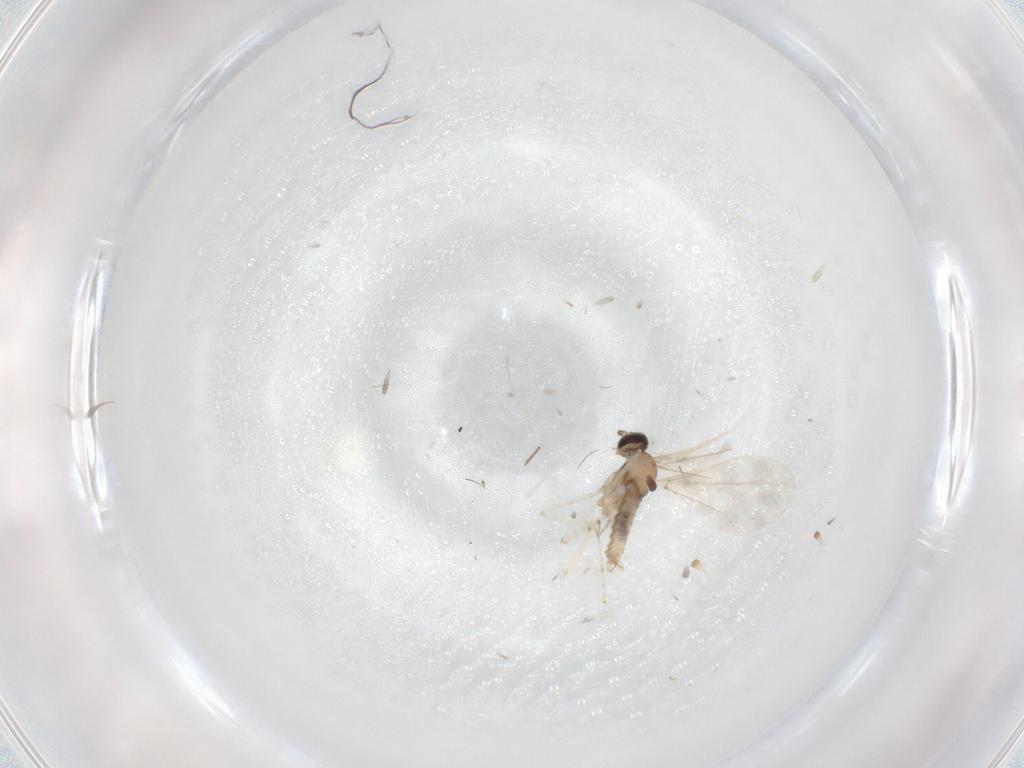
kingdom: Animalia
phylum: Arthropoda
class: Insecta
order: Diptera
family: Cecidomyiidae
